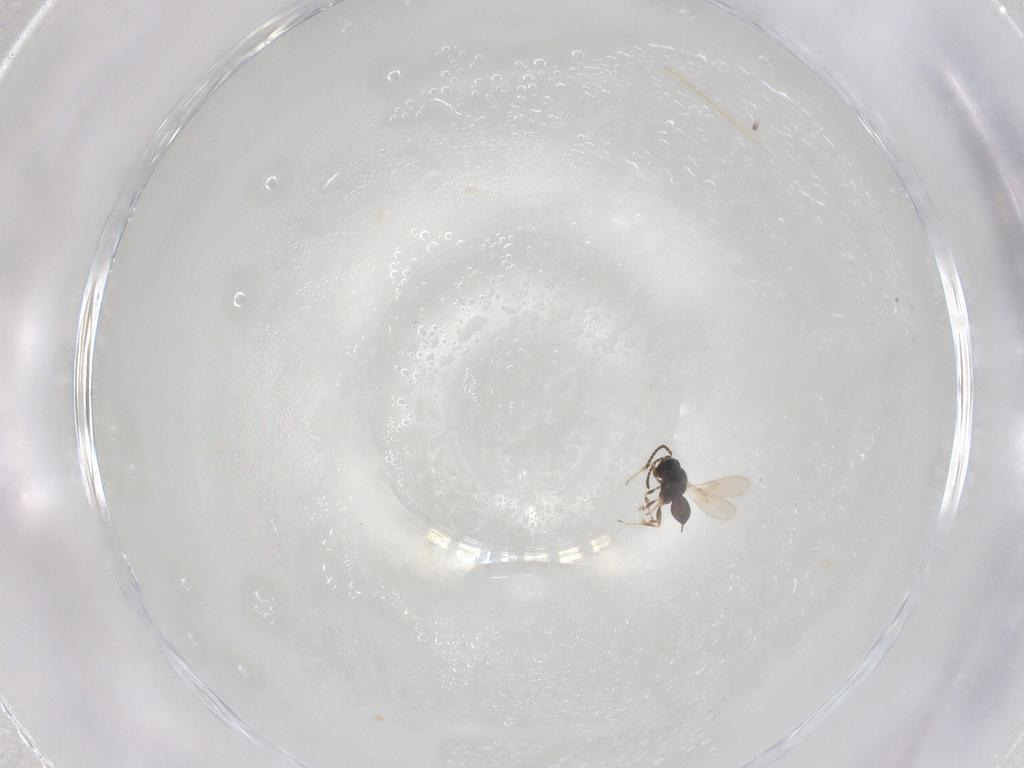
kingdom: Animalia
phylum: Arthropoda
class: Insecta
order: Hymenoptera
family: Scelionidae
